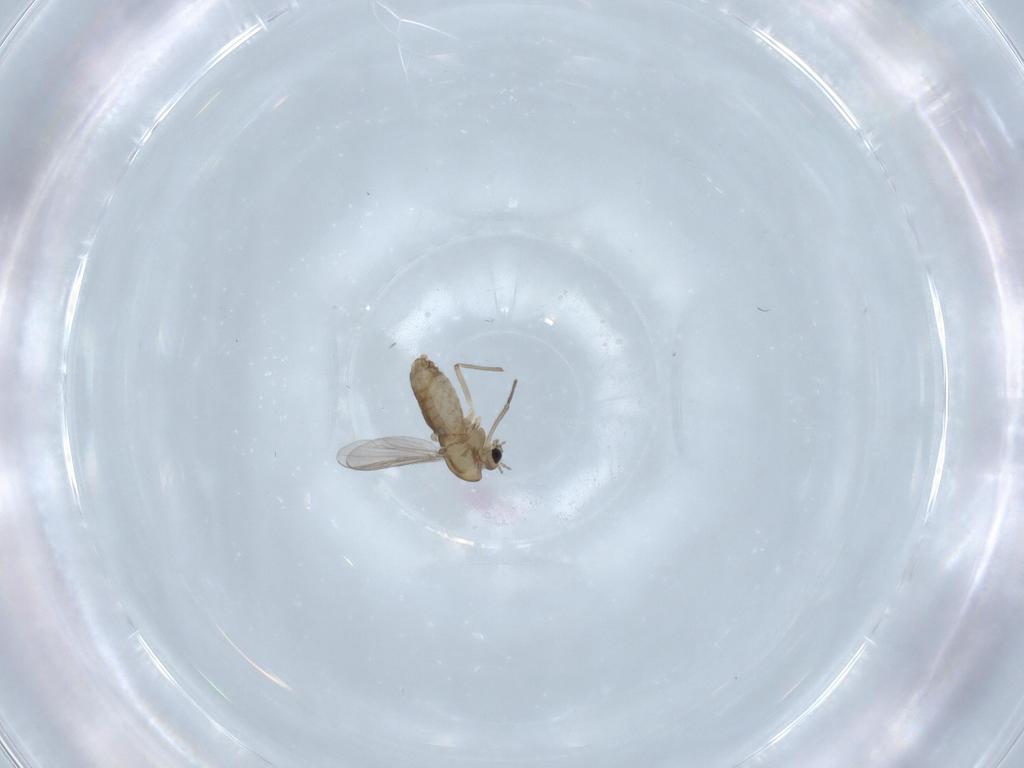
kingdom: Animalia
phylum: Arthropoda
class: Insecta
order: Diptera
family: Chironomidae
